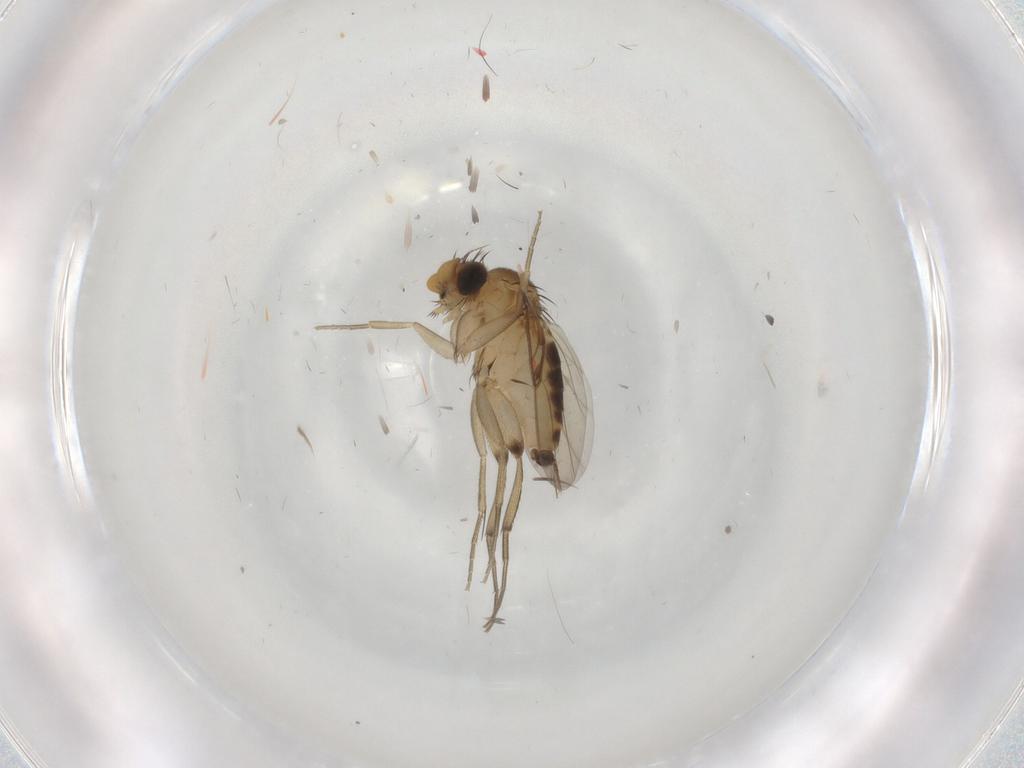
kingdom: Animalia
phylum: Arthropoda
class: Insecta
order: Diptera
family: Phoridae
